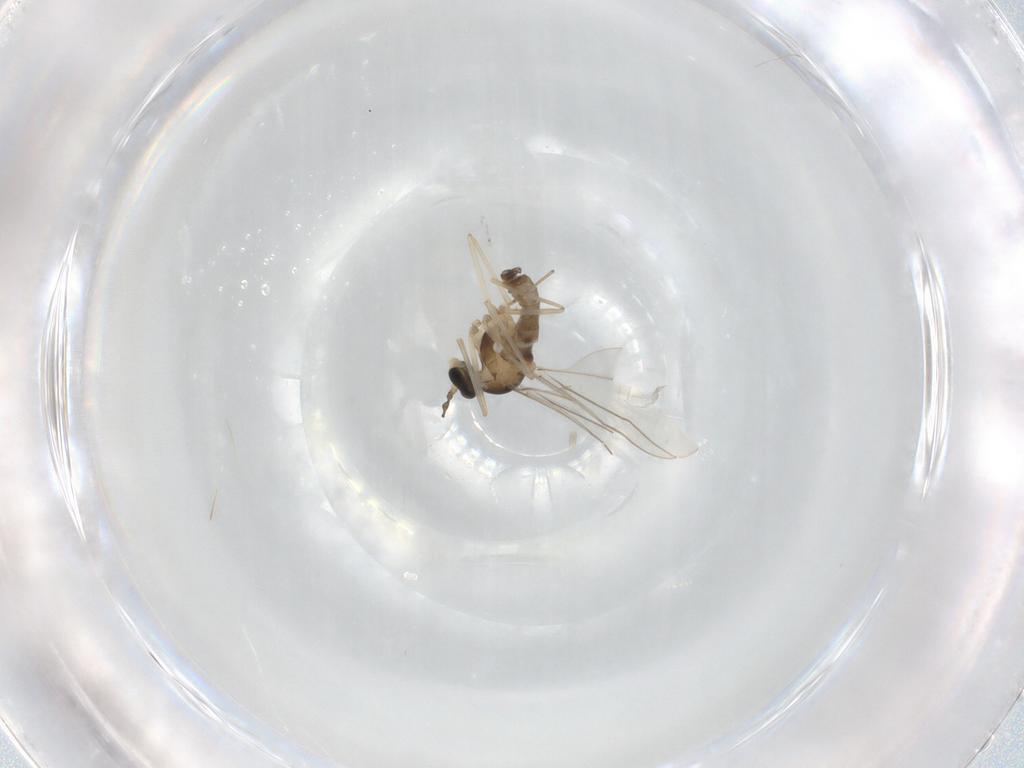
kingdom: Animalia
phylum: Arthropoda
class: Insecta
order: Diptera
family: Cecidomyiidae
